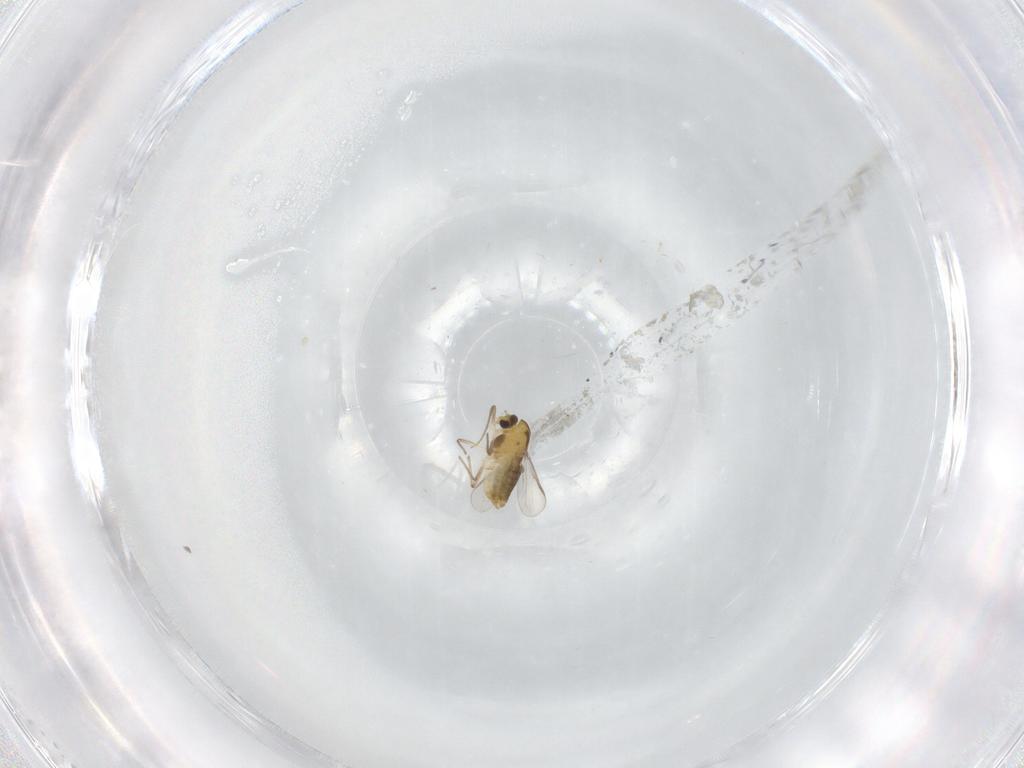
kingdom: Animalia
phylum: Arthropoda
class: Insecta
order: Diptera
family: Chironomidae
